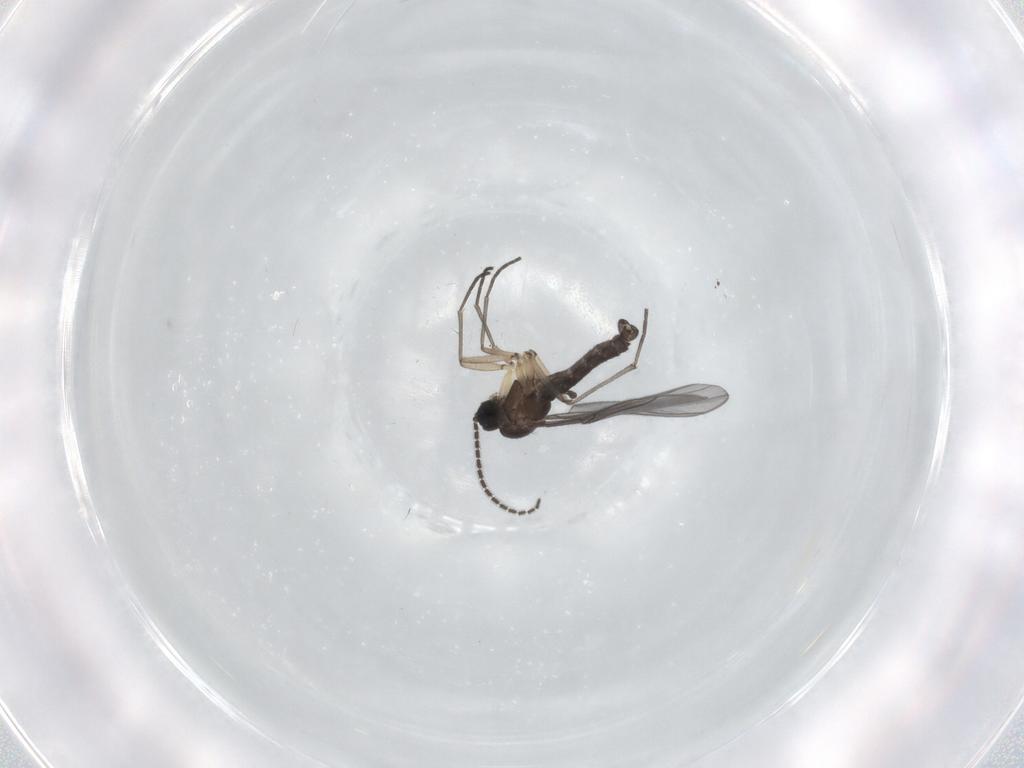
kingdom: Animalia
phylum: Arthropoda
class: Insecta
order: Diptera
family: Sciaridae
